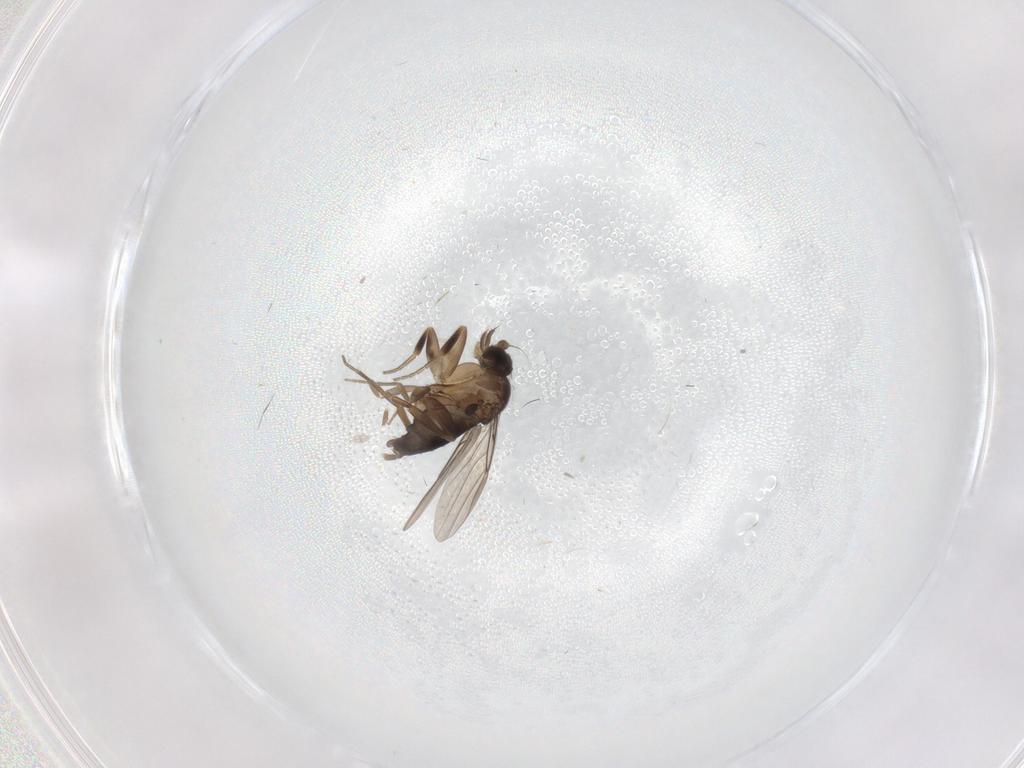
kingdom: Animalia
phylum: Arthropoda
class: Insecta
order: Diptera
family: Phoridae
